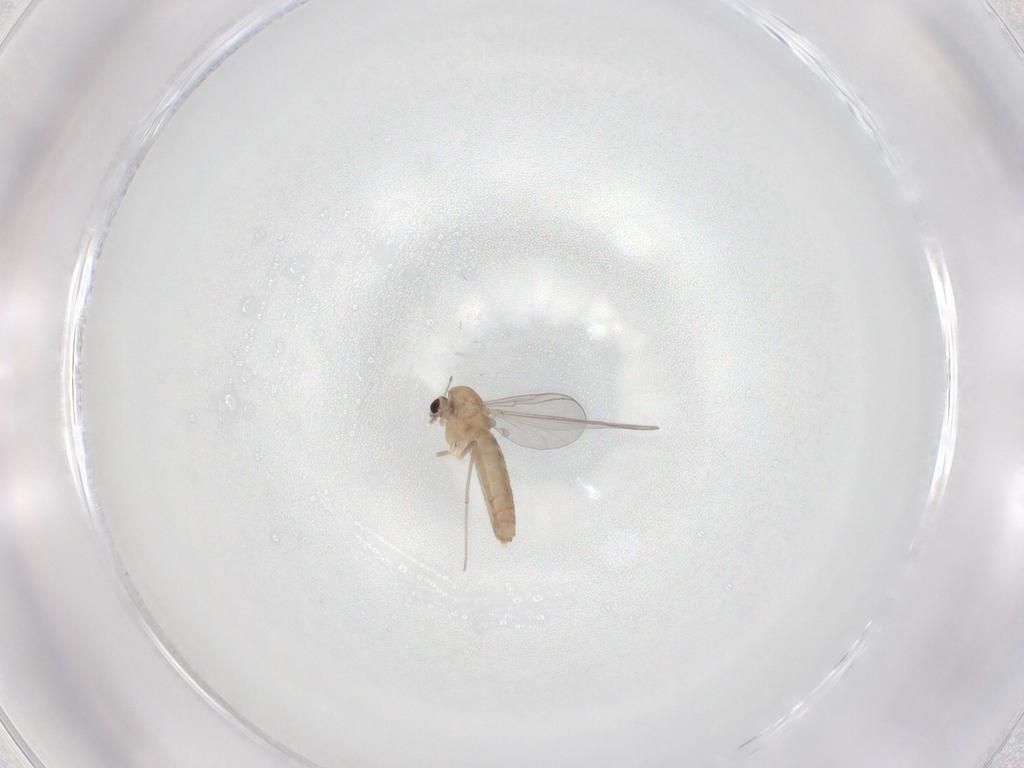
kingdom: Animalia
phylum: Arthropoda
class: Insecta
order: Diptera
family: Chironomidae
